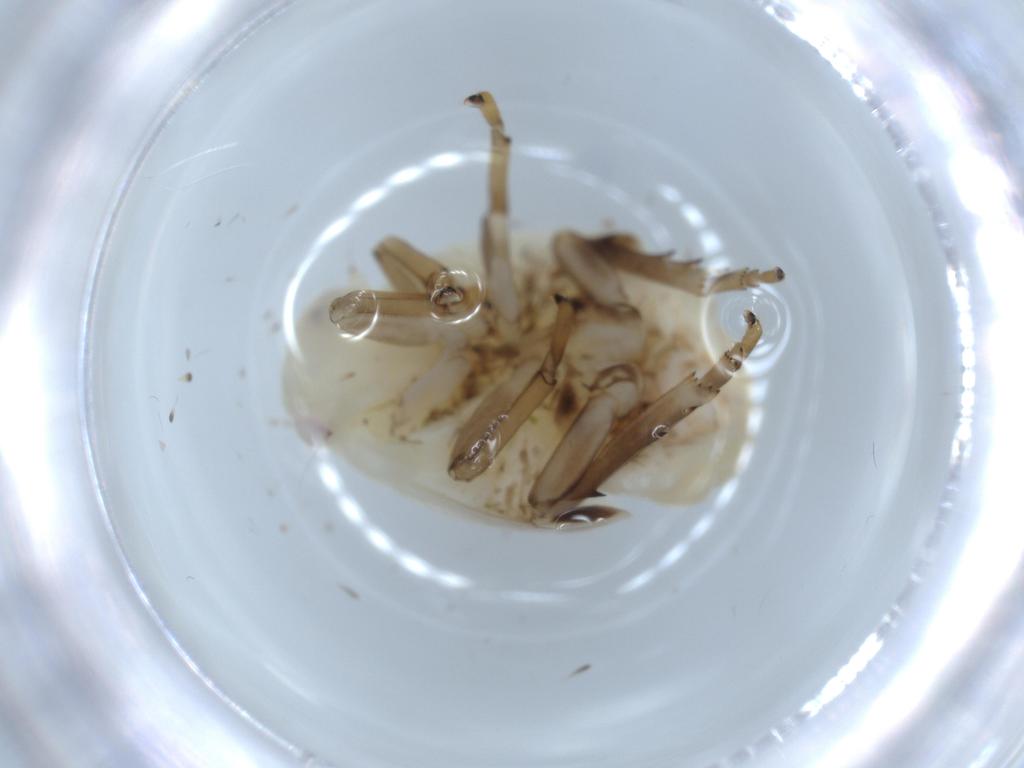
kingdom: Animalia
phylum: Arthropoda
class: Insecta
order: Hemiptera
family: Flatidae
